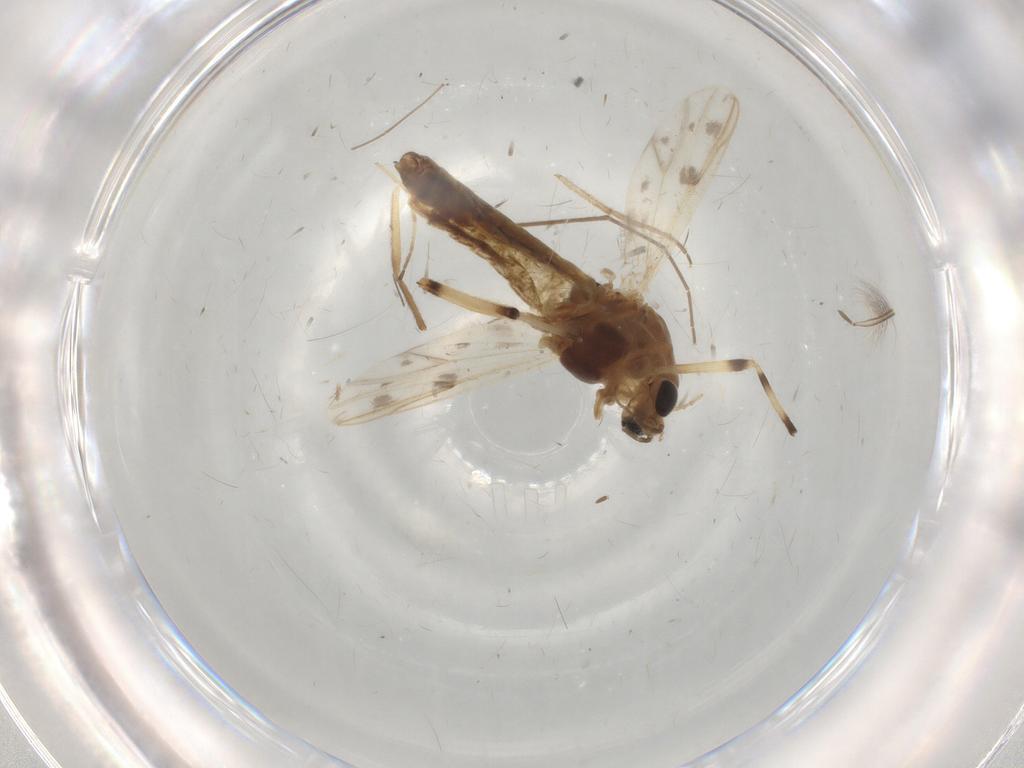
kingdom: Animalia
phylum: Arthropoda
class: Insecta
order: Diptera
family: Chironomidae
